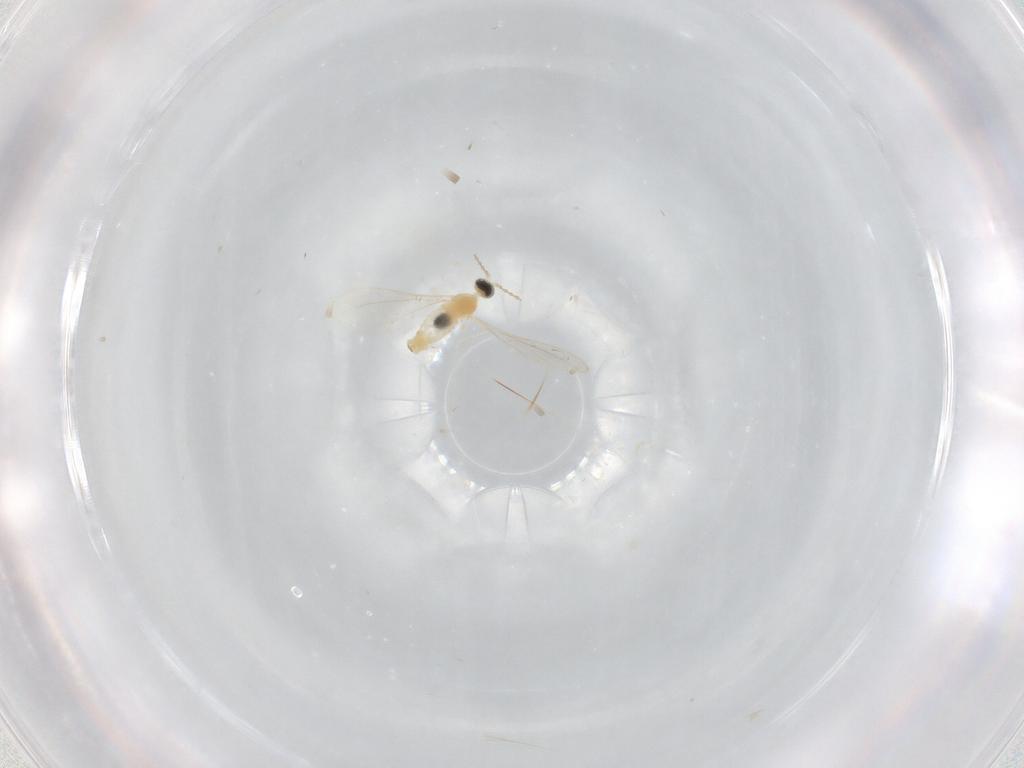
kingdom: Animalia
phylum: Arthropoda
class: Insecta
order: Diptera
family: Cecidomyiidae
